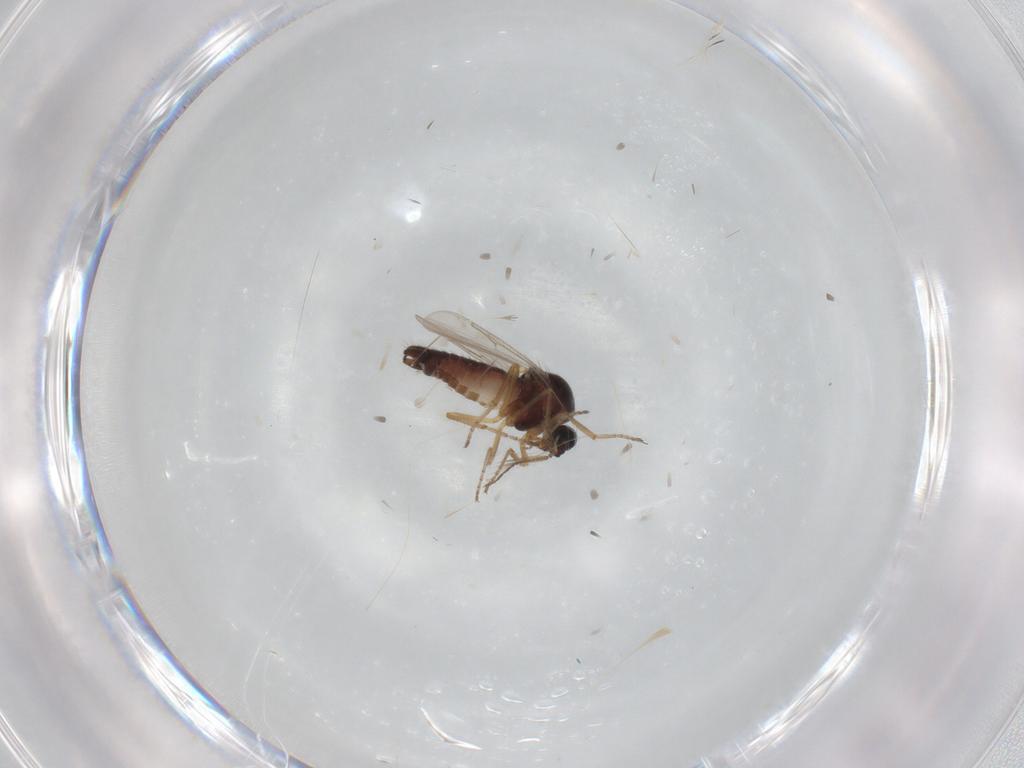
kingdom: Animalia
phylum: Arthropoda
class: Insecta
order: Diptera
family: Ceratopogonidae
